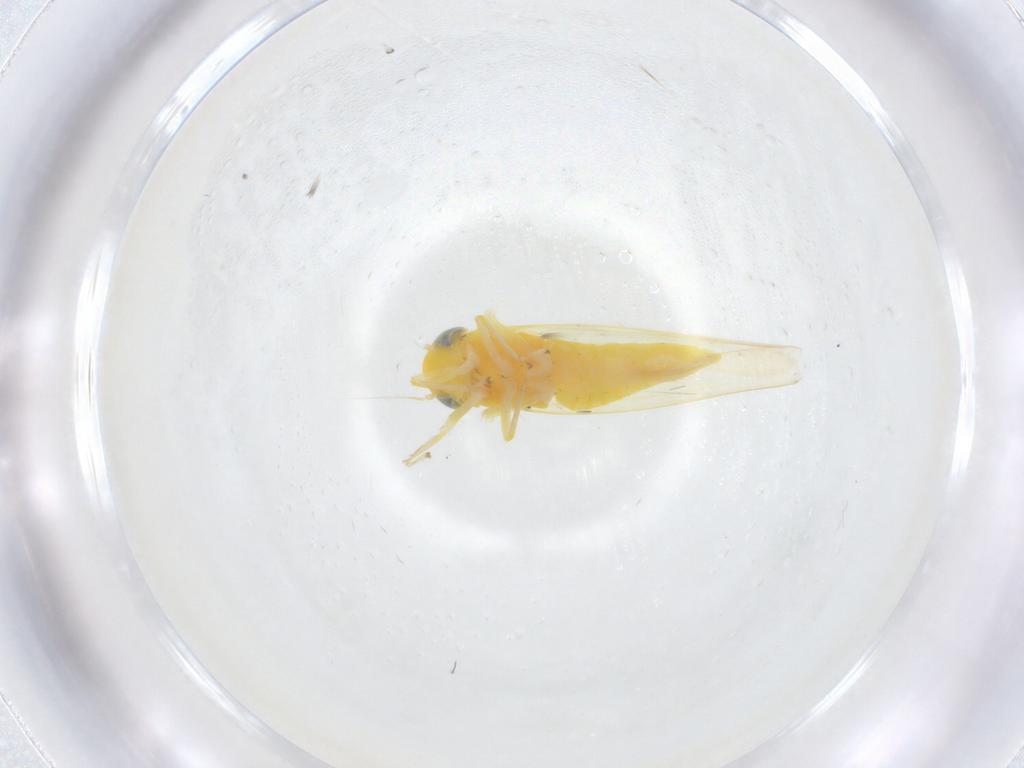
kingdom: Animalia
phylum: Arthropoda
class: Insecta
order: Hemiptera
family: Cicadellidae
